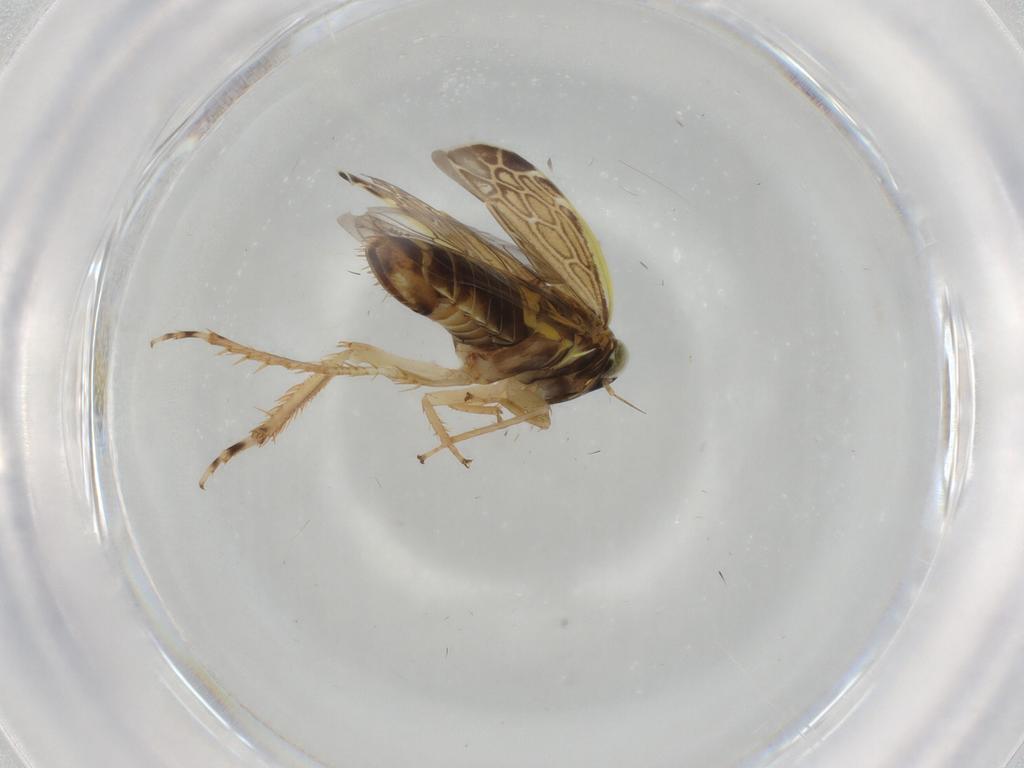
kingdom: Animalia
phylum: Arthropoda
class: Insecta
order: Hemiptera
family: Cicadellidae
